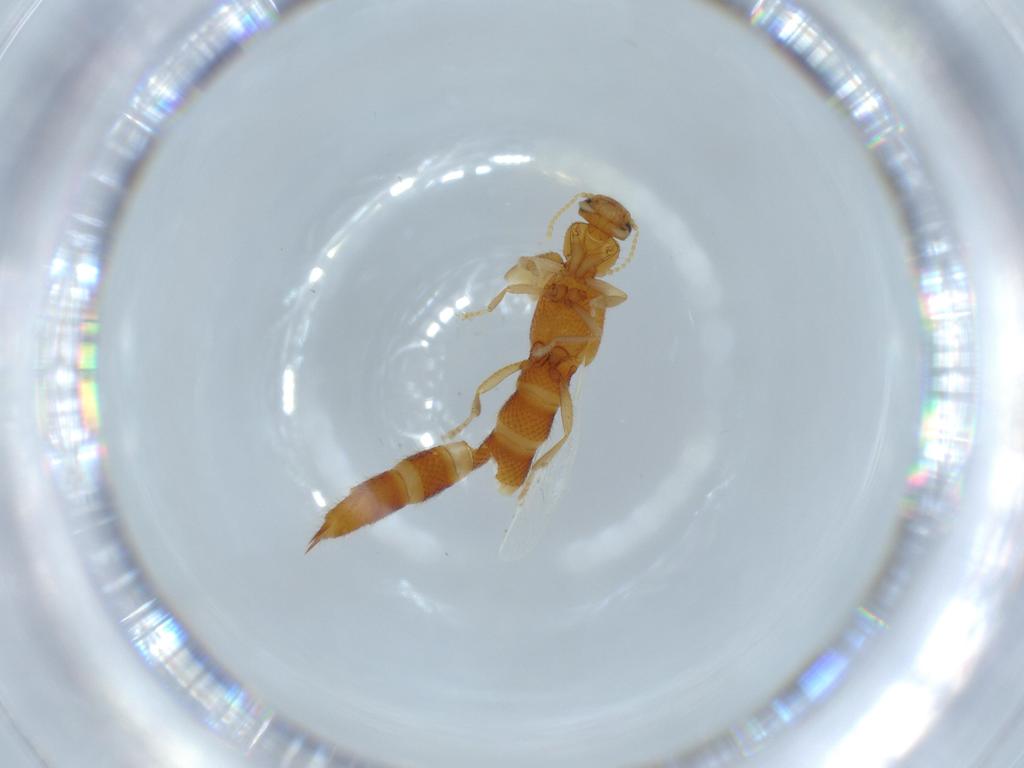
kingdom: Animalia
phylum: Arthropoda
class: Insecta
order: Coleoptera
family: Staphylinidae
